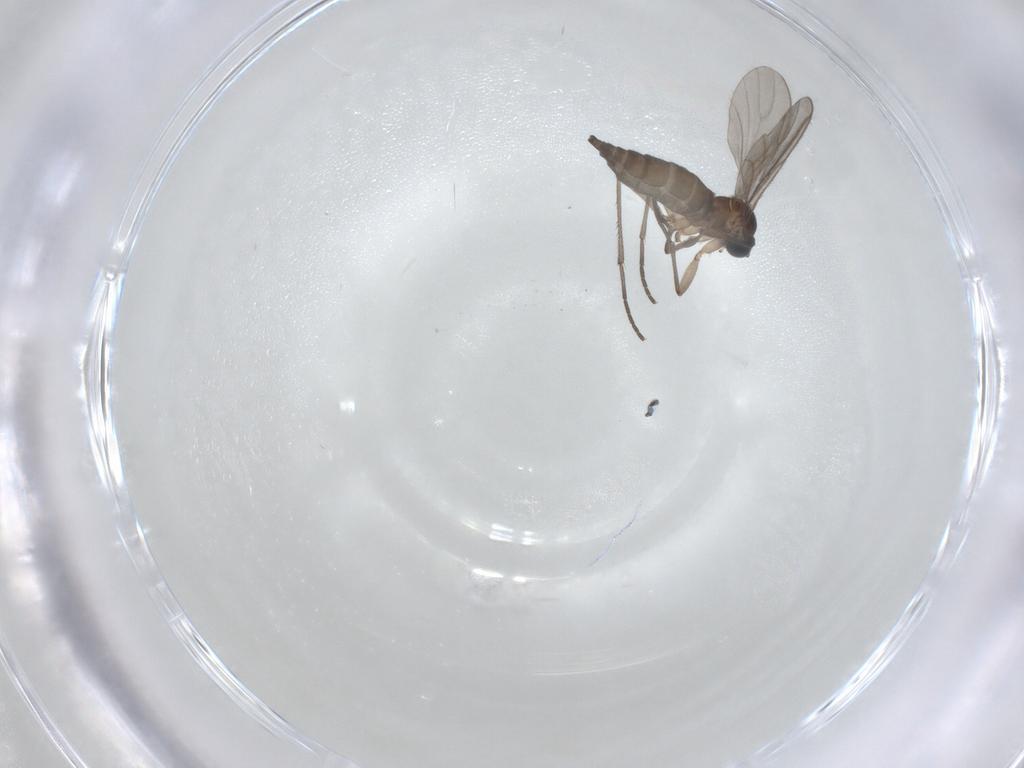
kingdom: Animalia
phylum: Arthropoda
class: Insecta
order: Diptera
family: Sciaridae
